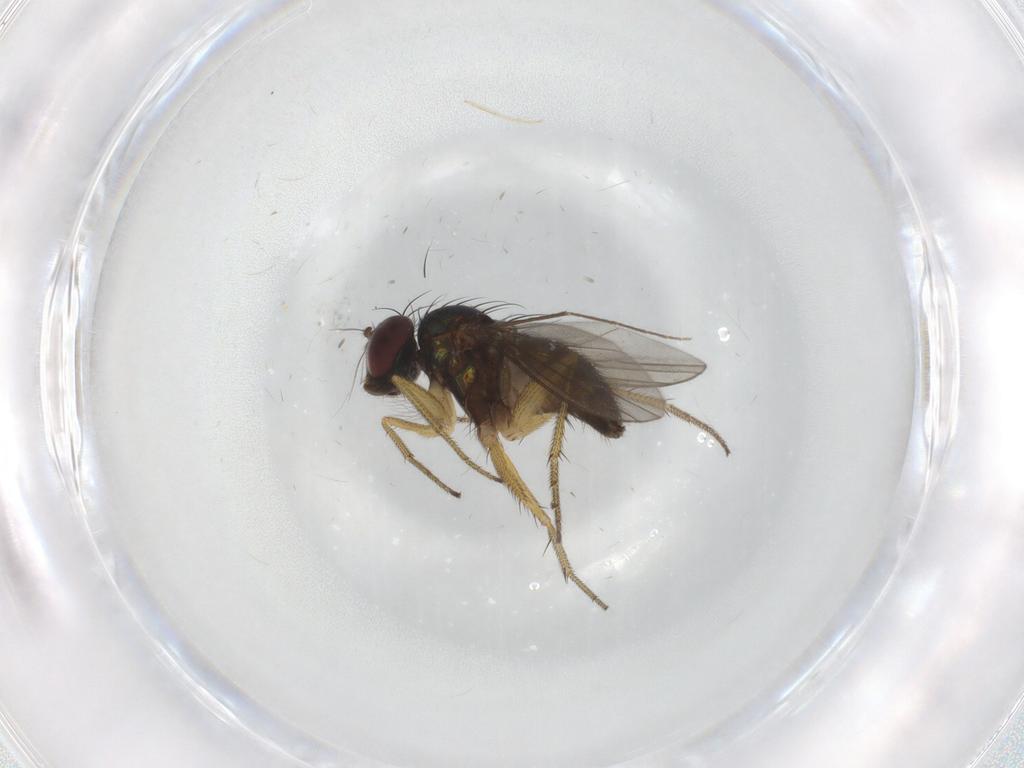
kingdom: Animalia
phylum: Arthropoda
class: Insecta
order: Diptera
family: Chironomidae
